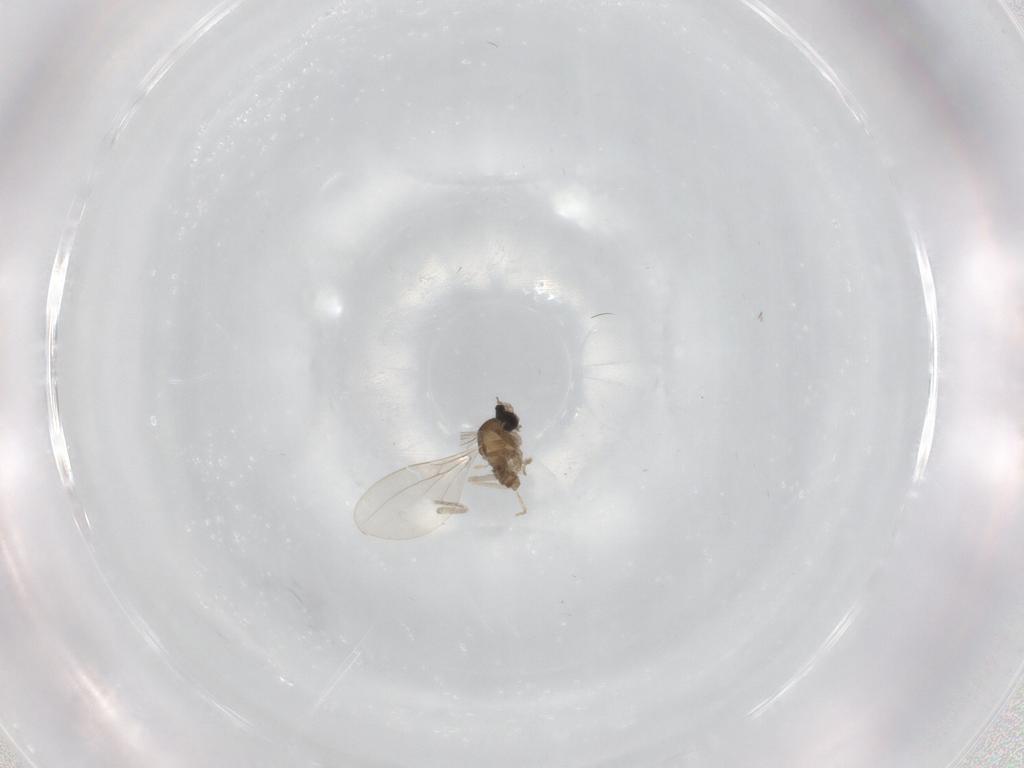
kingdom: Animalia
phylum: Arthropoda
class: Insecta
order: Diptera
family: Cecidomyiidae
